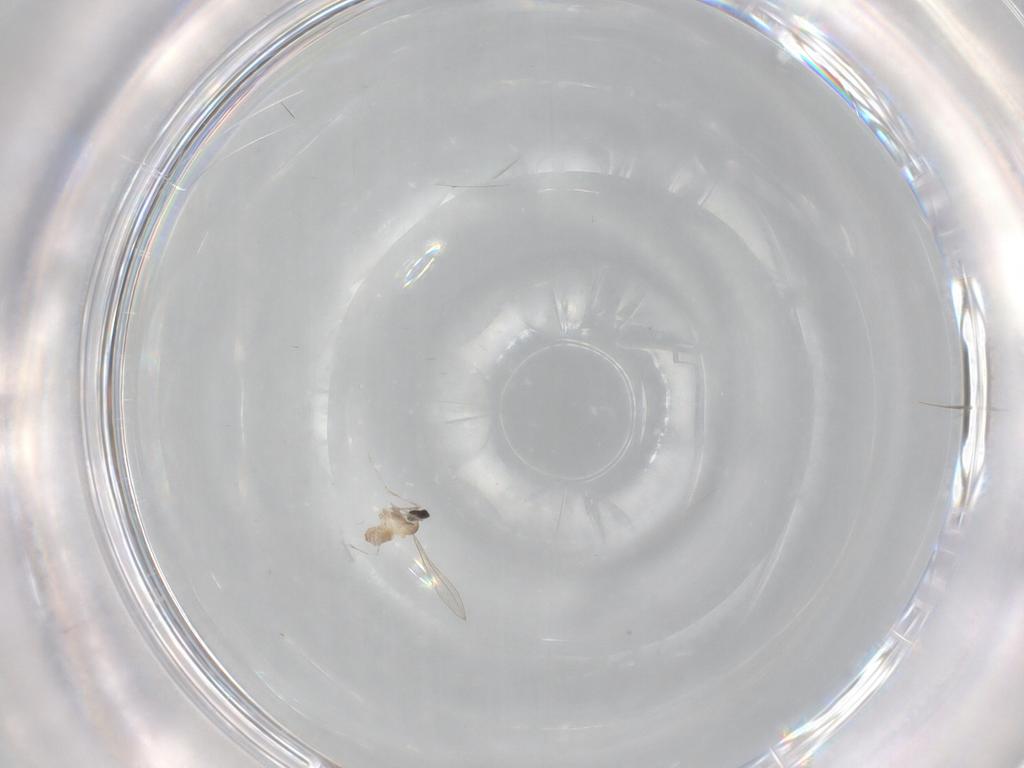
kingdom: Animalia
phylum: Arthropoda
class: Insecta
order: Diptera
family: Cecidomyiidae
